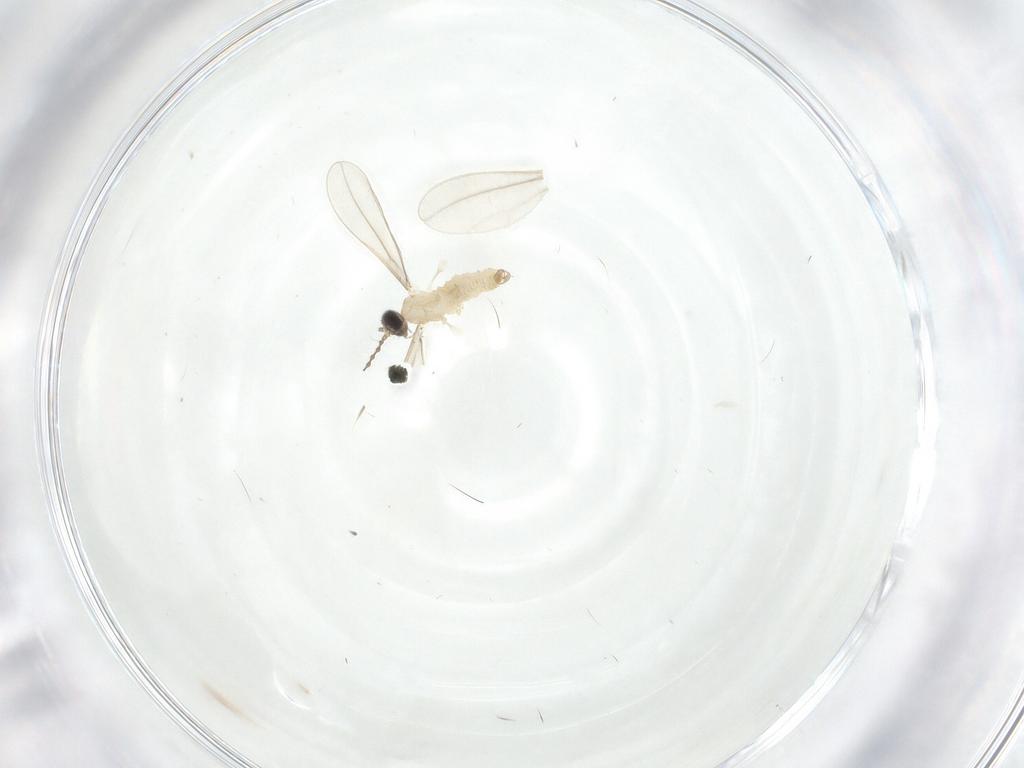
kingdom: Animalia
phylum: Arthropoda
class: Insecta
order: Diptera
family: Cecidomyiidae
